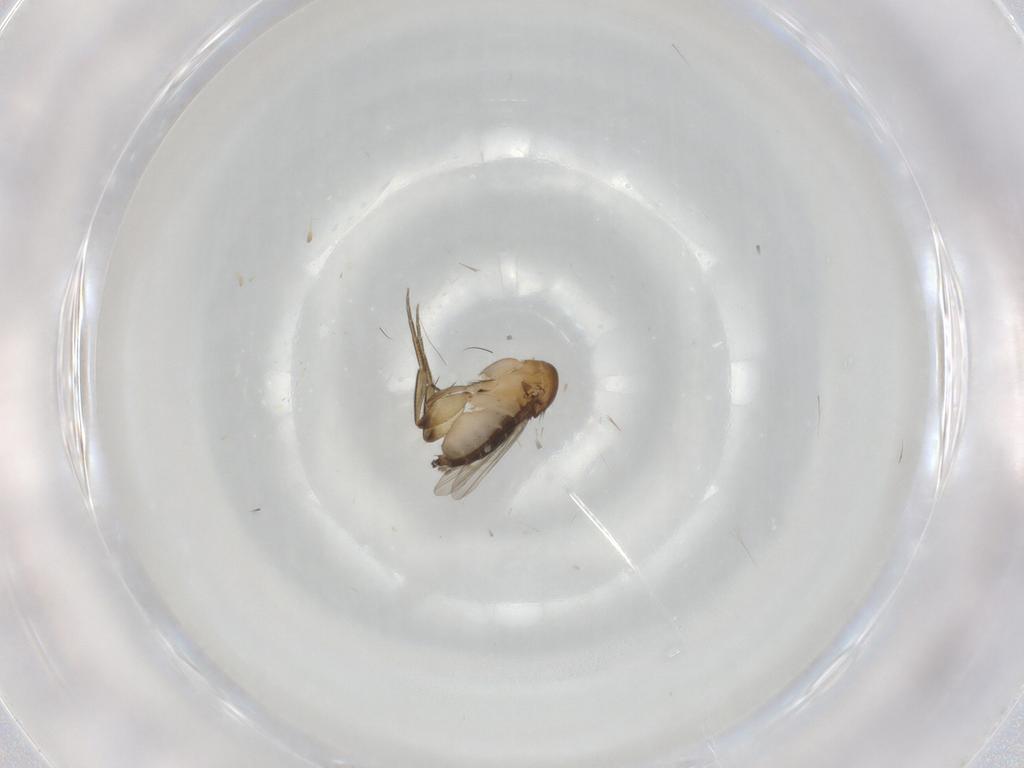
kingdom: Animalia
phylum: Arthropoda
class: Insecta
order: Diptera
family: Phoridae
